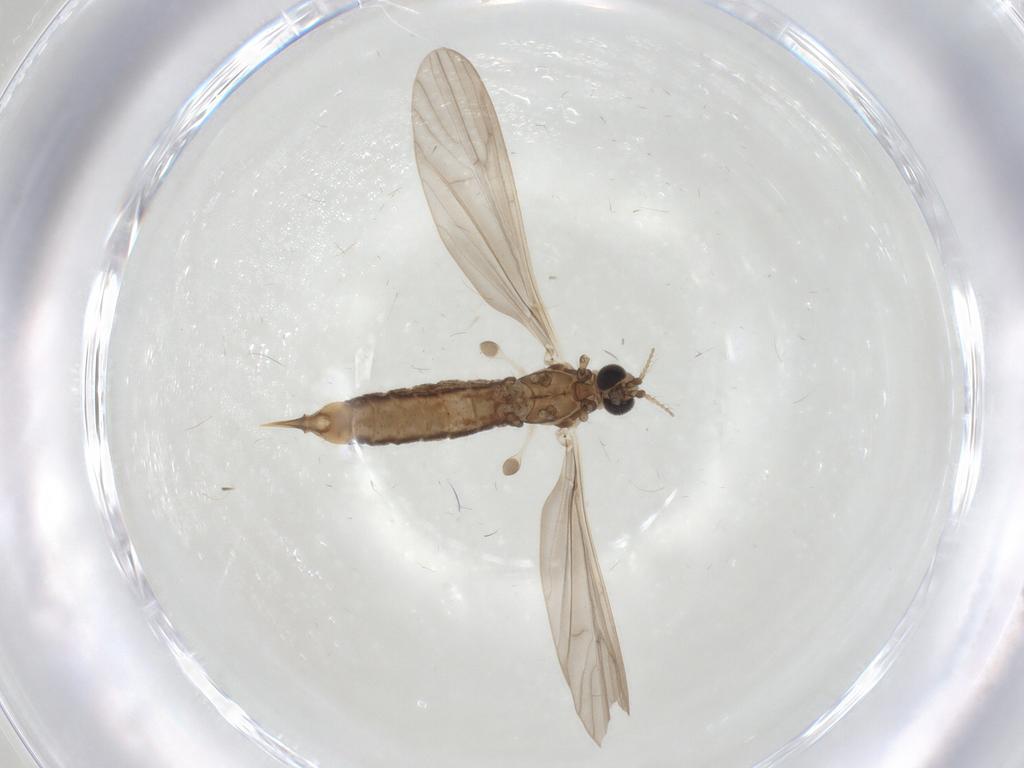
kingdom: Animalia
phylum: Arthropoda
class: Insecta
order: Diptera
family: Limoniidae
